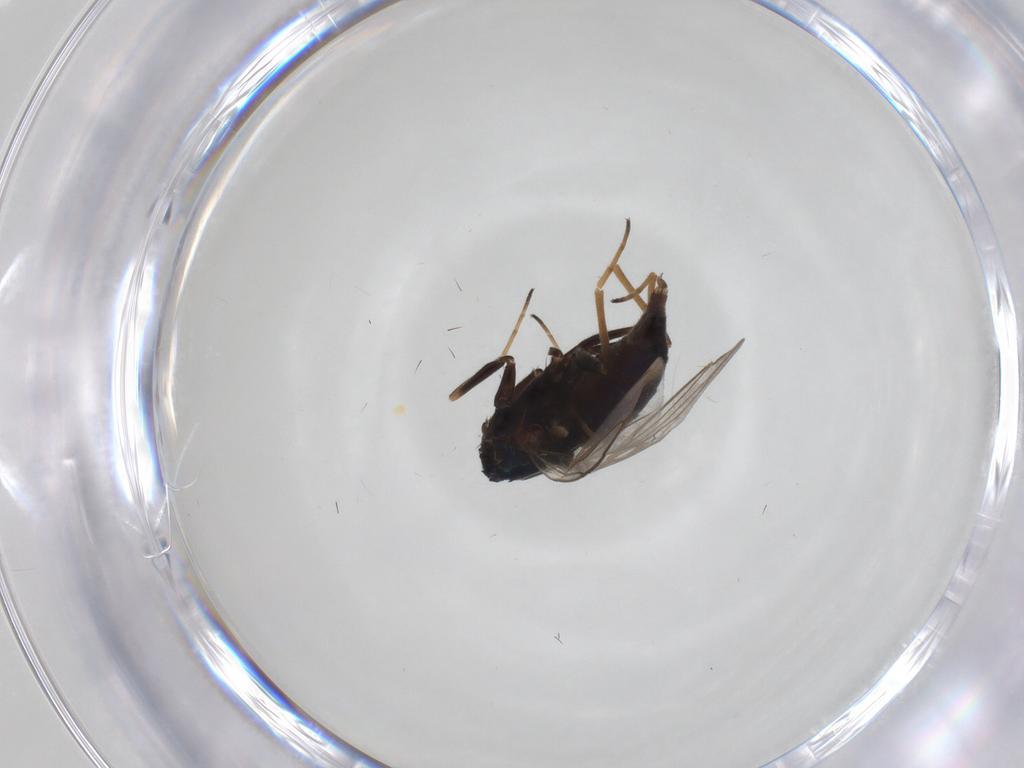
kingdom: Animalia
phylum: Arthropoda
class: Insecta
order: Diptera
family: Dolichopodidae
